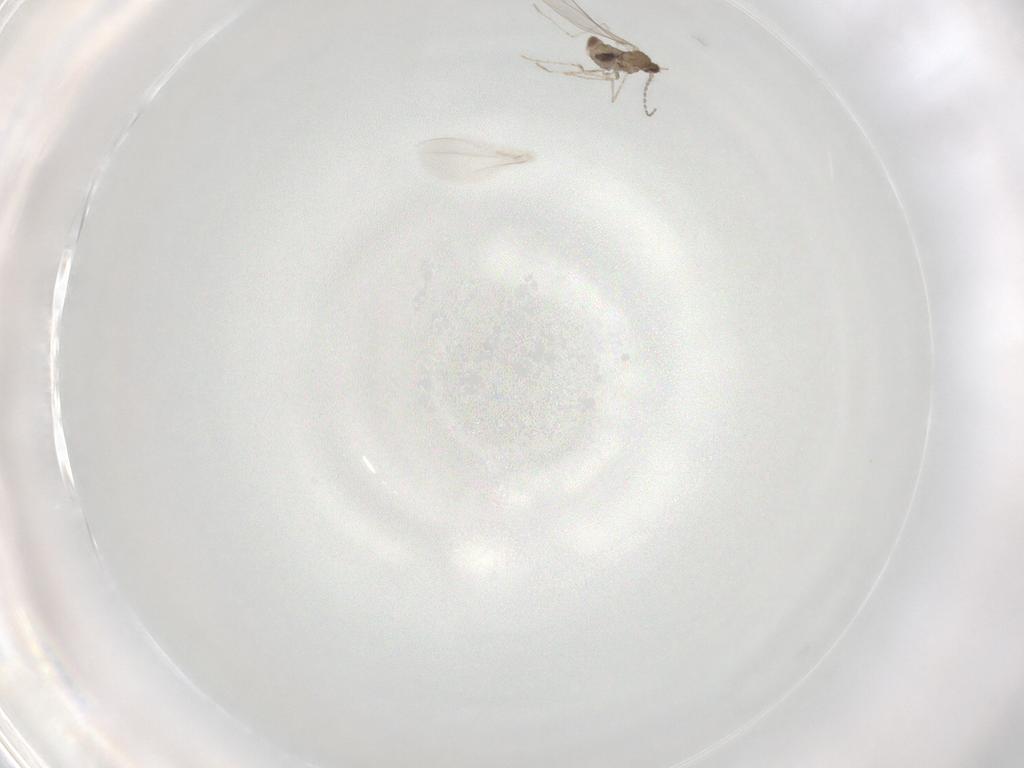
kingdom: Animalia
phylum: Arthropoda
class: Insecta
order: Diptera
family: Cecidomyiidae
